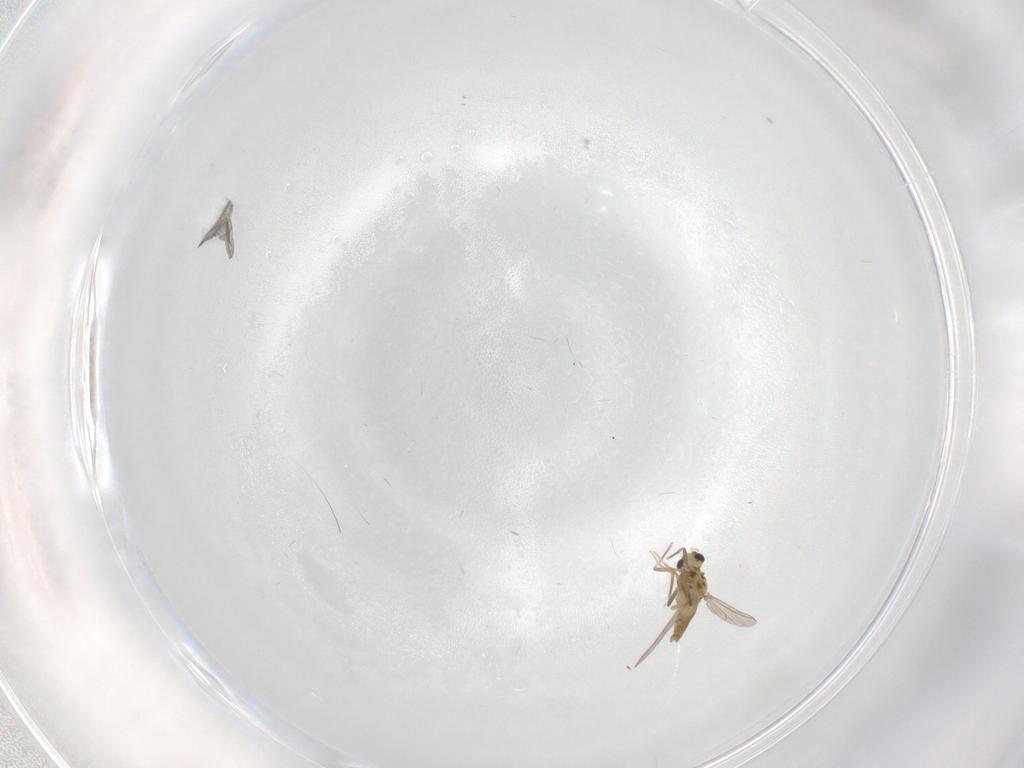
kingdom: Animalia
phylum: Arthropoda
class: Insecta
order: Diptera
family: Chironomidae
